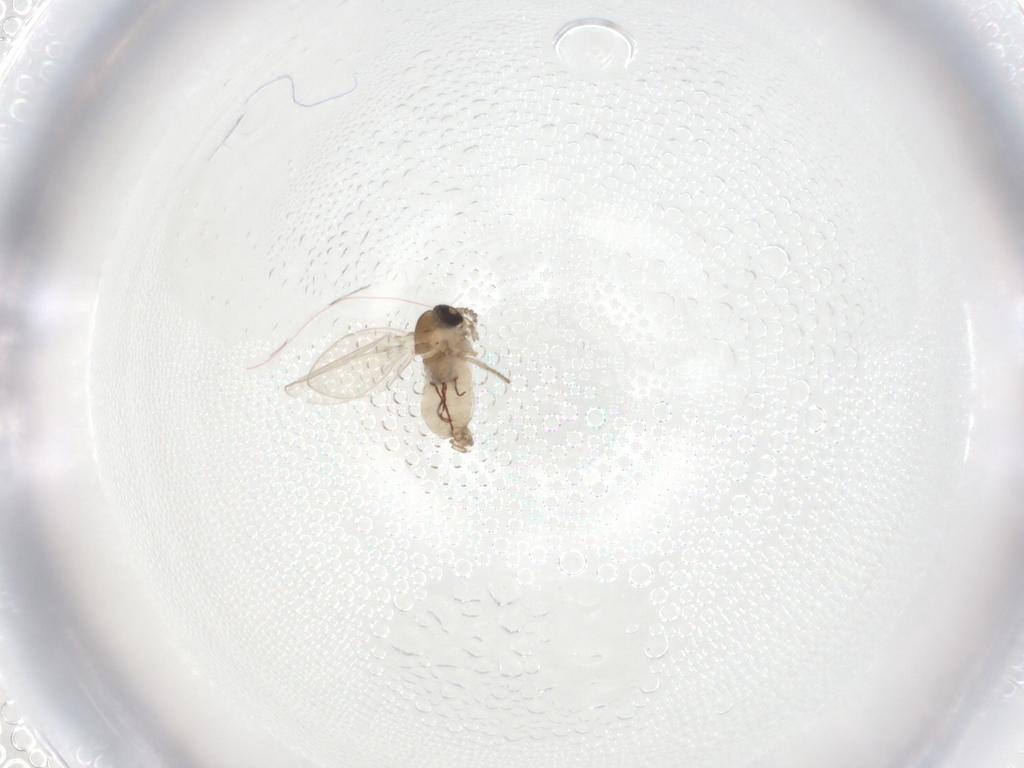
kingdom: Animalia
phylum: Arthropoda
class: Insecta
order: Diptera
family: Psychodidae
